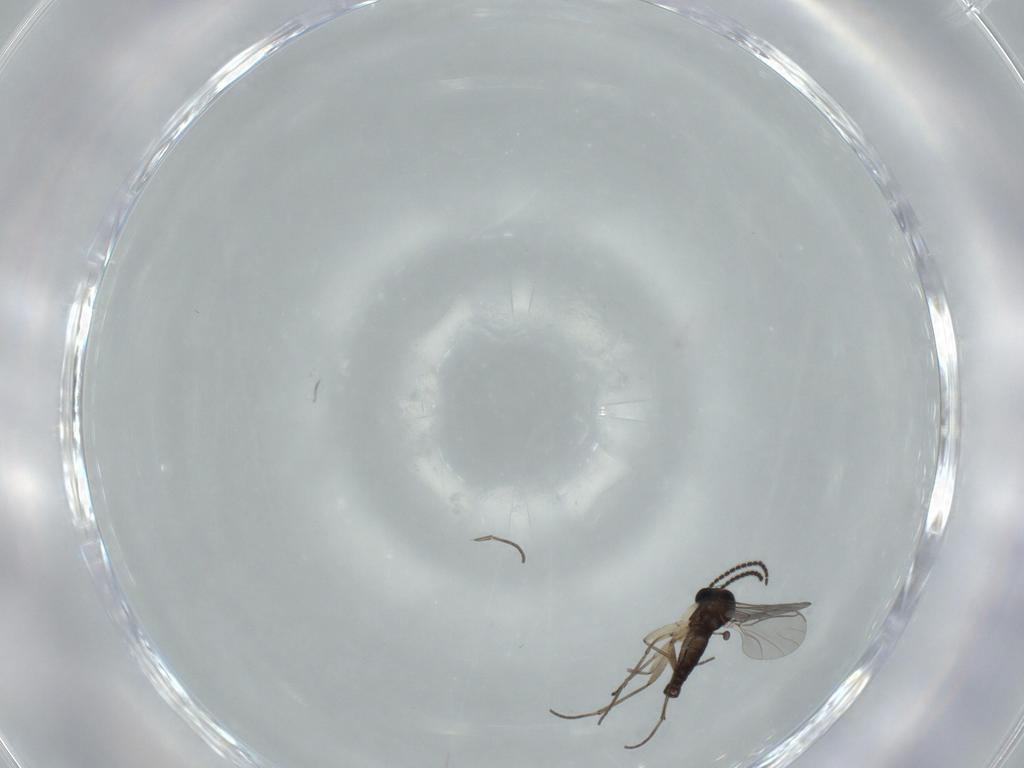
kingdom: Animalia
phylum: Arthropoda
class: Insecta
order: Diptera
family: Sciaridae
